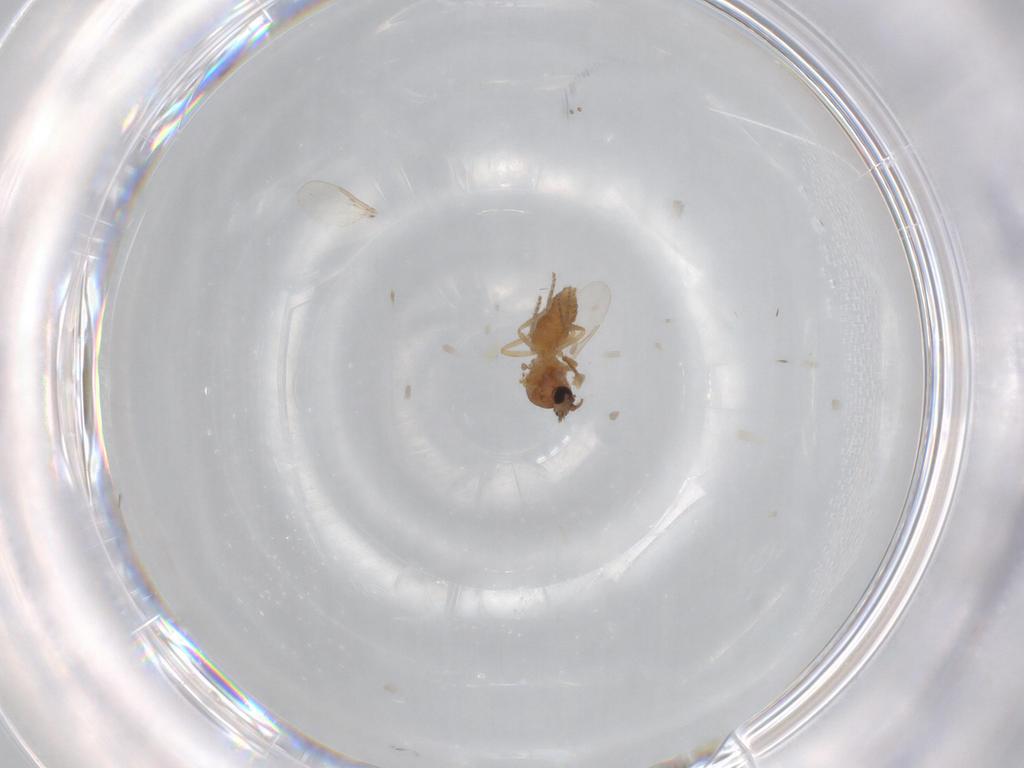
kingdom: Animalia
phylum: Arthropoda
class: Insecta
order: Diptera
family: Ceratopogonidae
